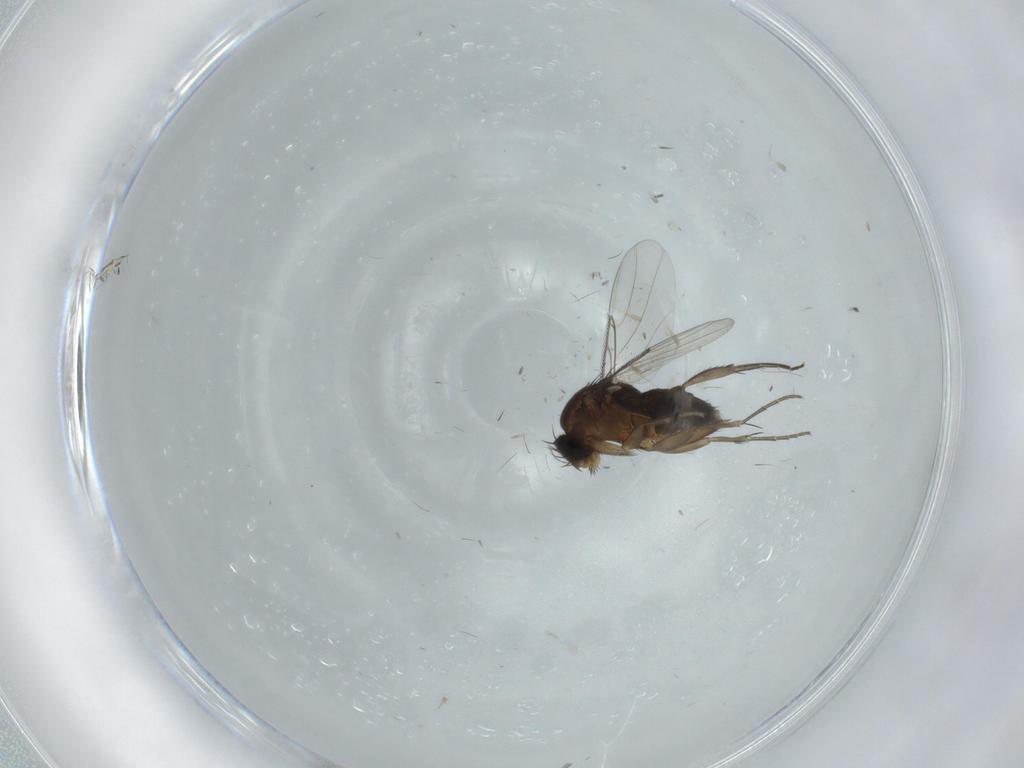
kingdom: Animalia
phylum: Arthropoda
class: Insecta
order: Diptera
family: Phoridae
